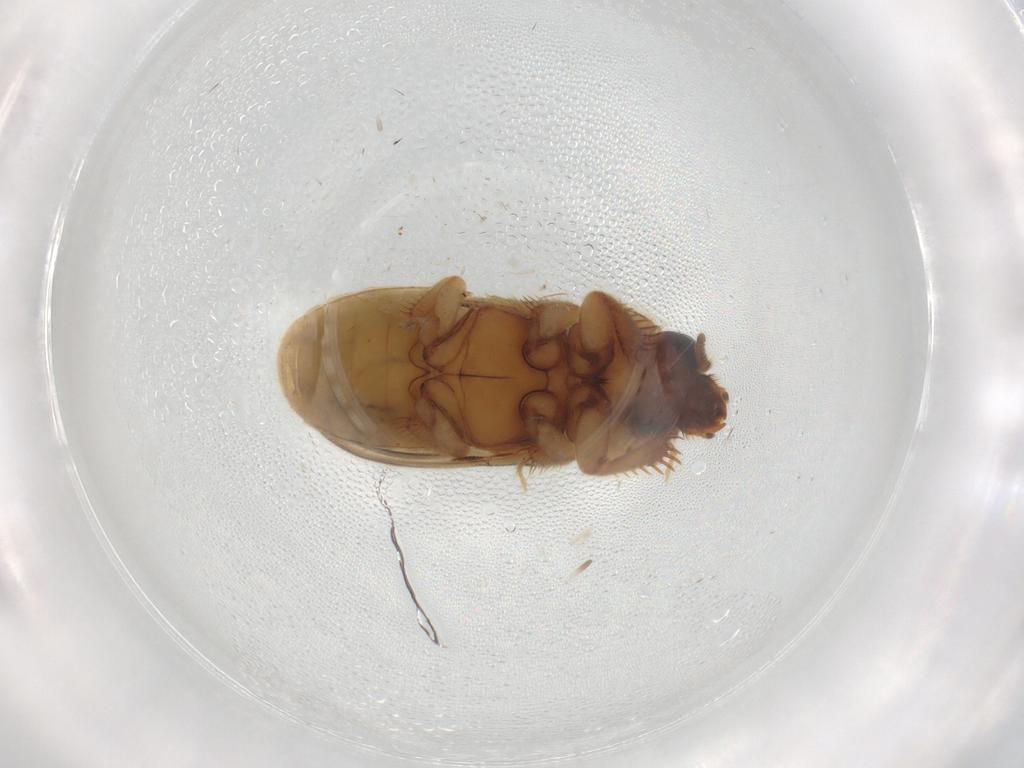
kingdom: Animalia
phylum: Arthropoda
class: Insecta
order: Coleoptera
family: Heteroceridae
